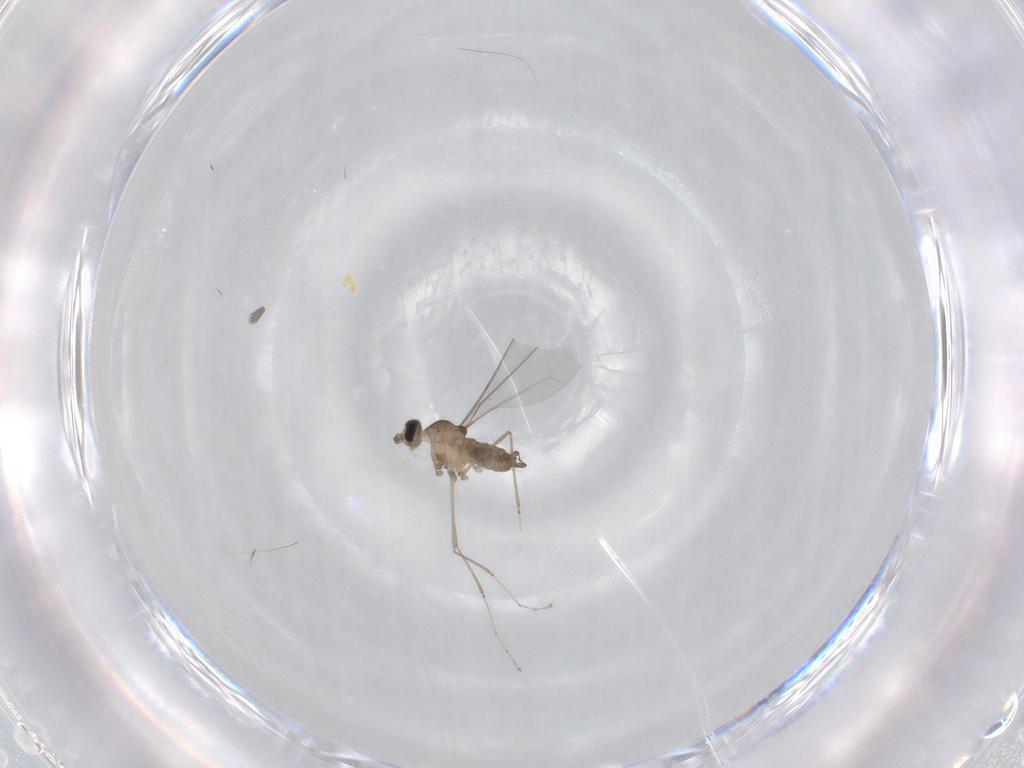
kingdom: Animalia
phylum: Arthropoda
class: Insecta
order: Diptera
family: Cecidomyiidae
